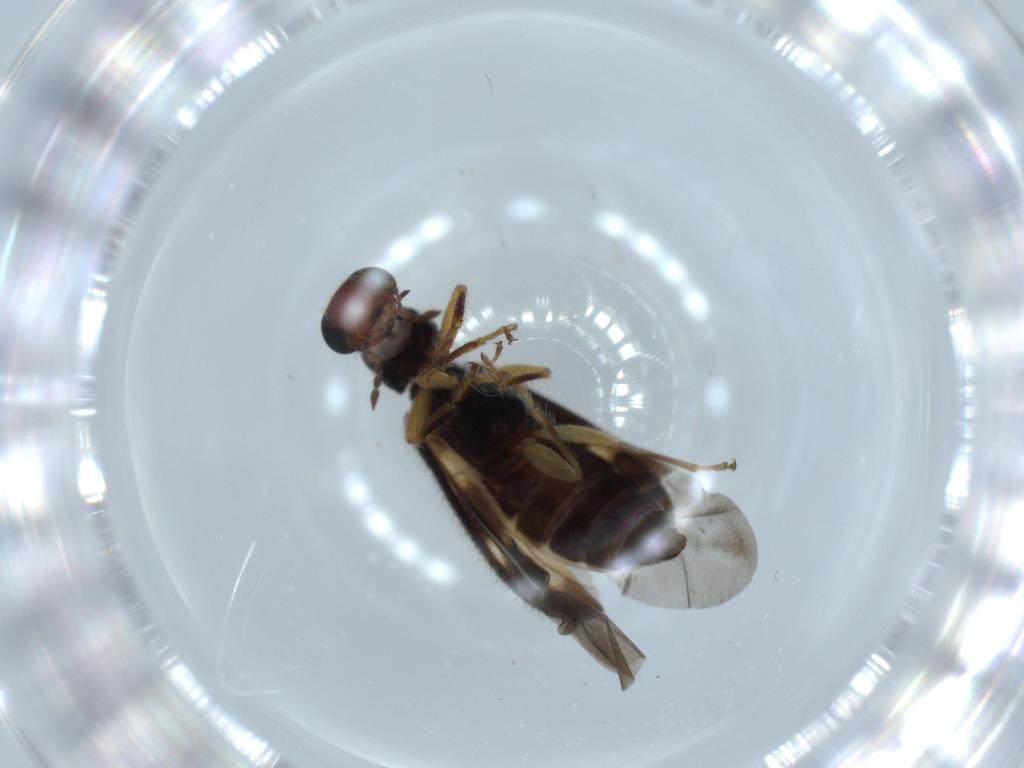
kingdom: Animalia
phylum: Arthropoda
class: Insecta
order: Coleoptera
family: Cleridae
